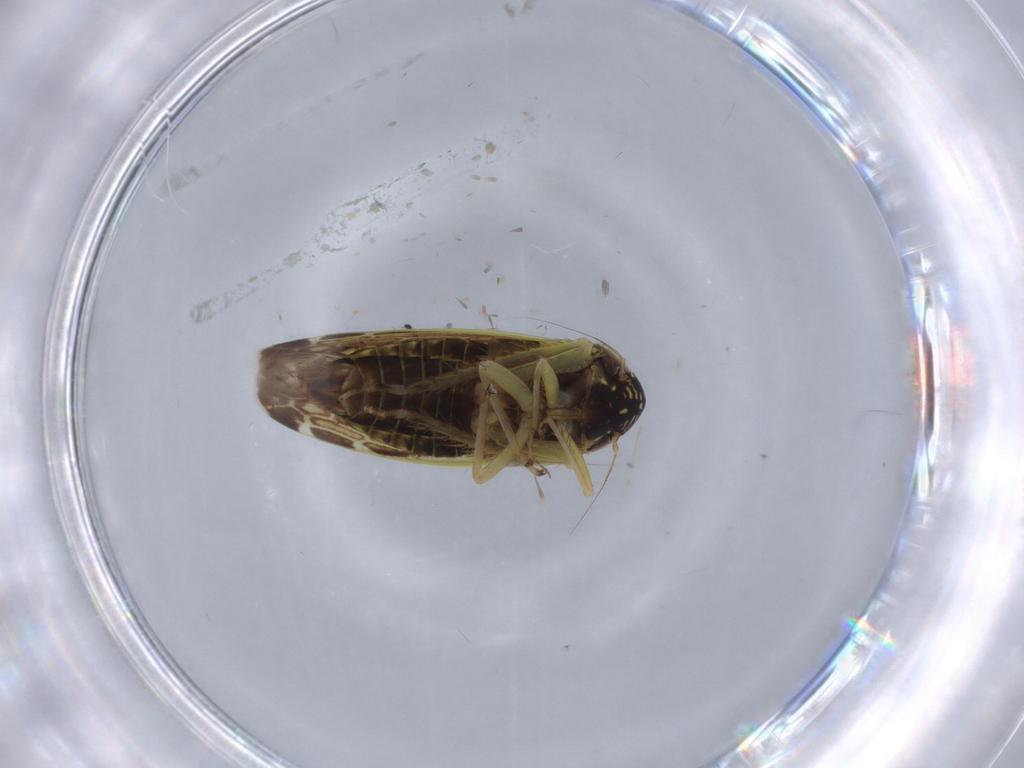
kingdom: Animalia
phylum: Arthropoda
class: Insecta
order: Hemiptera
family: Cicadellidae
